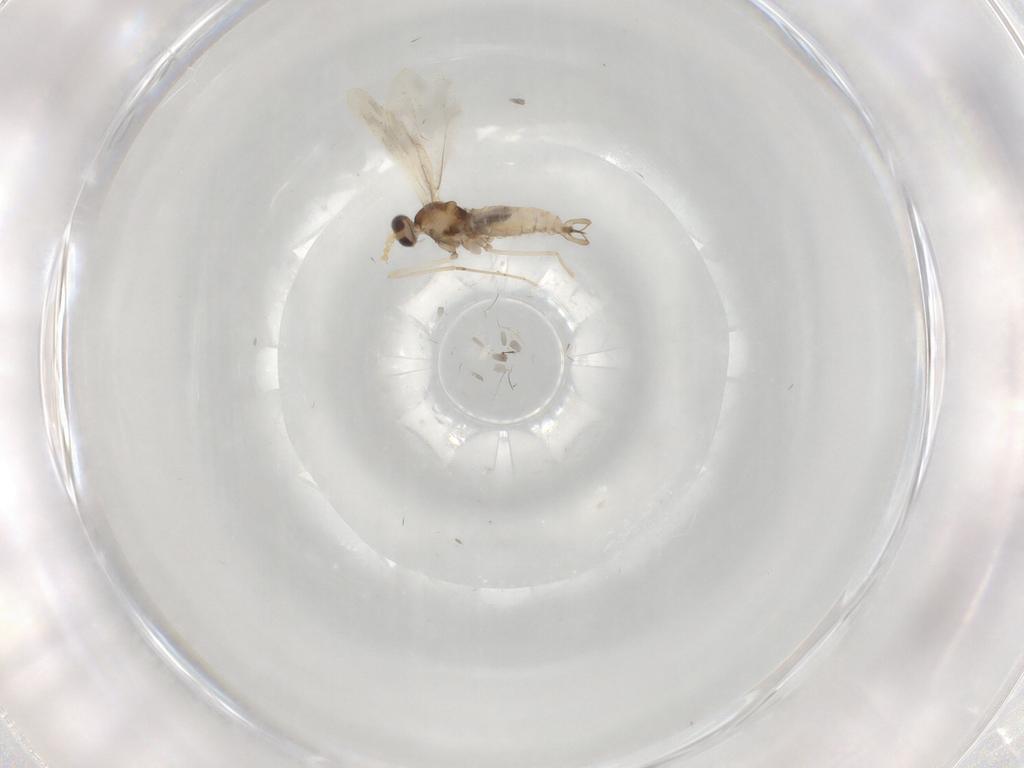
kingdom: Animalia
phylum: Arthropoda
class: Insecta
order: Diptera
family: Cecidomyiidae
